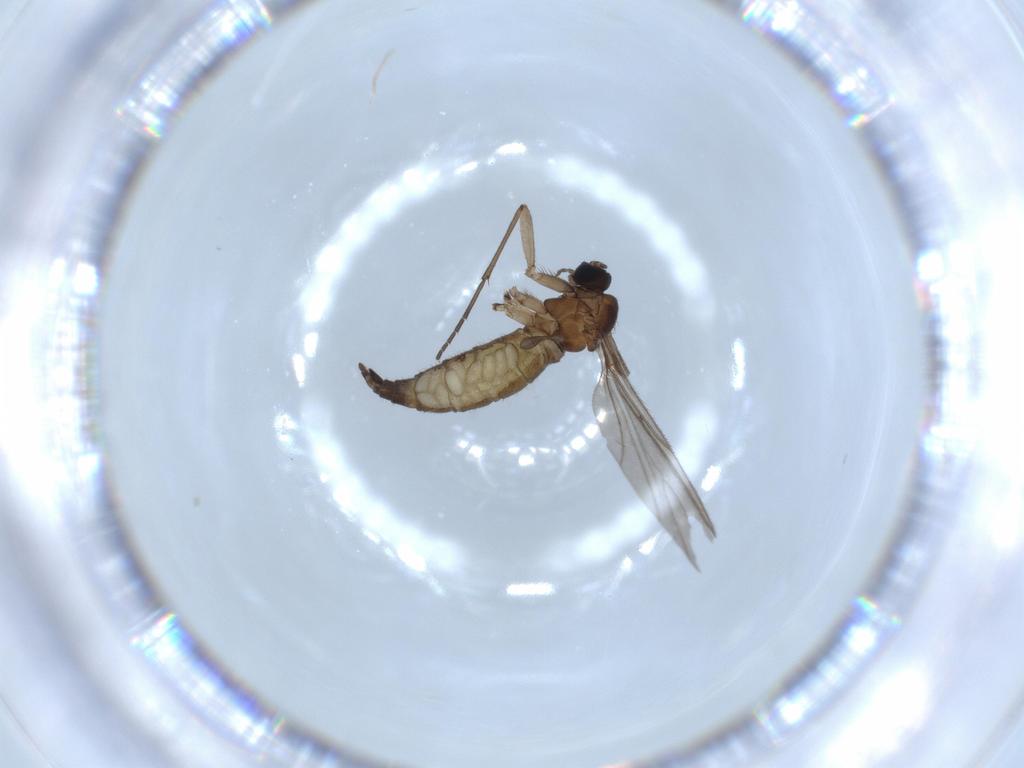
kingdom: Animalia
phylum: Arthropoda
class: Insecta
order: Diptera
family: Sciaridae
